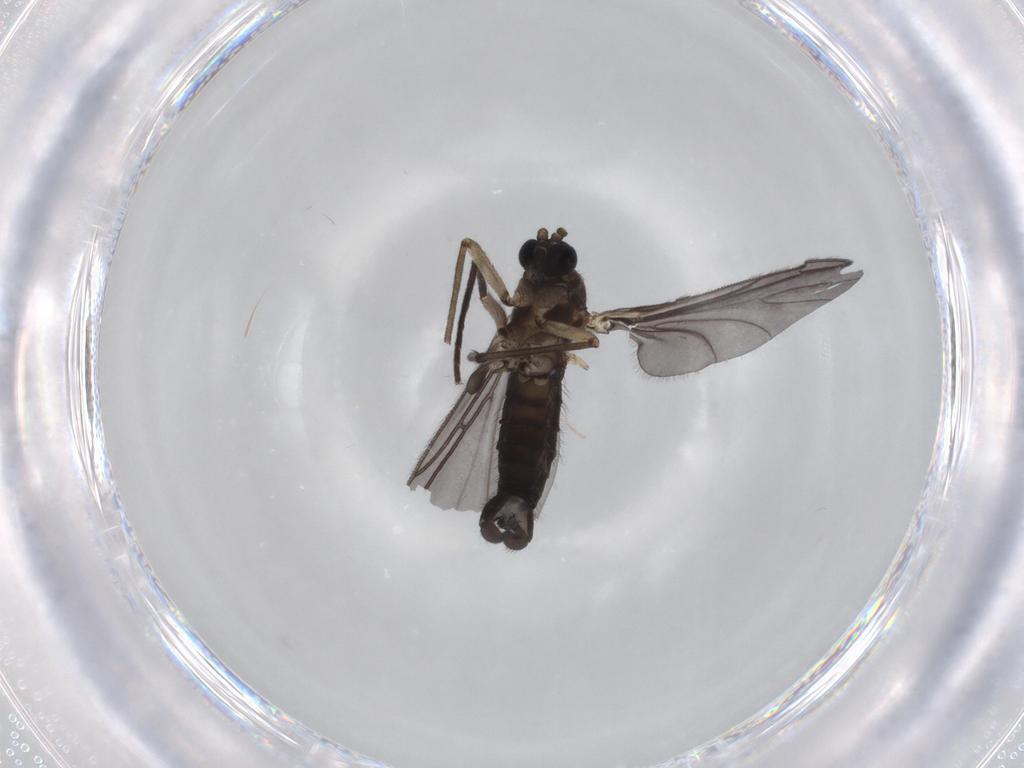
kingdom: Animalia
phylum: Arthropoda
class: Insecta
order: Diptera
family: Sciaridae
